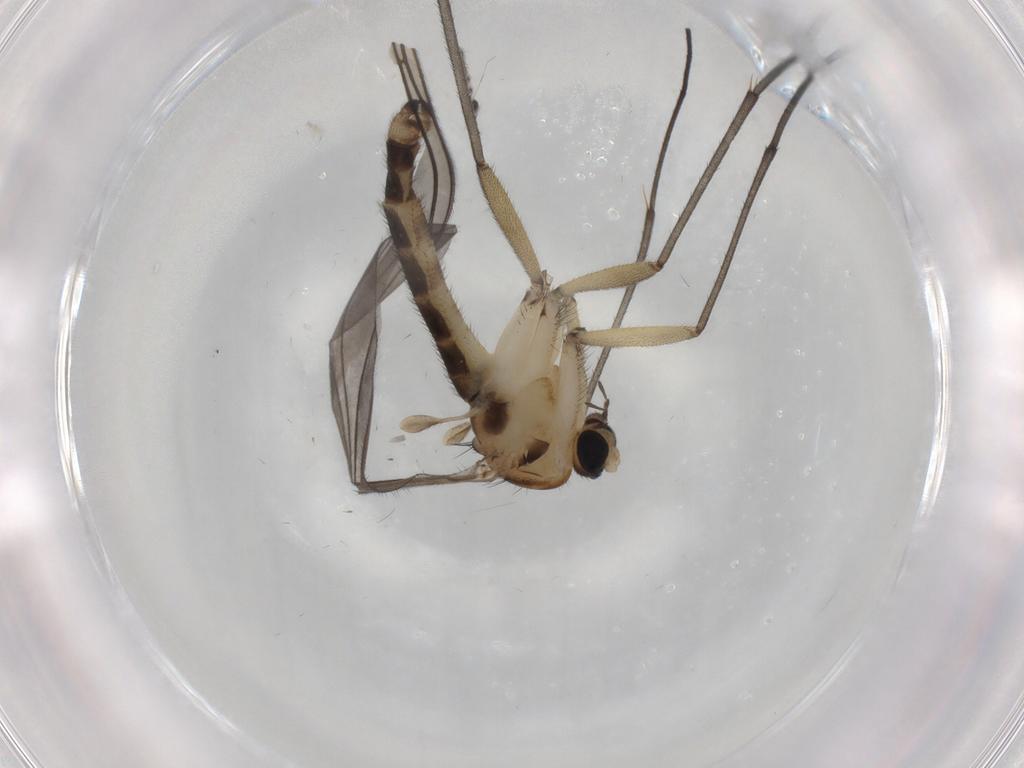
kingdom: Animalia
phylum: Arthropoda
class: Insecta
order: Diptera
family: Sciaridae
